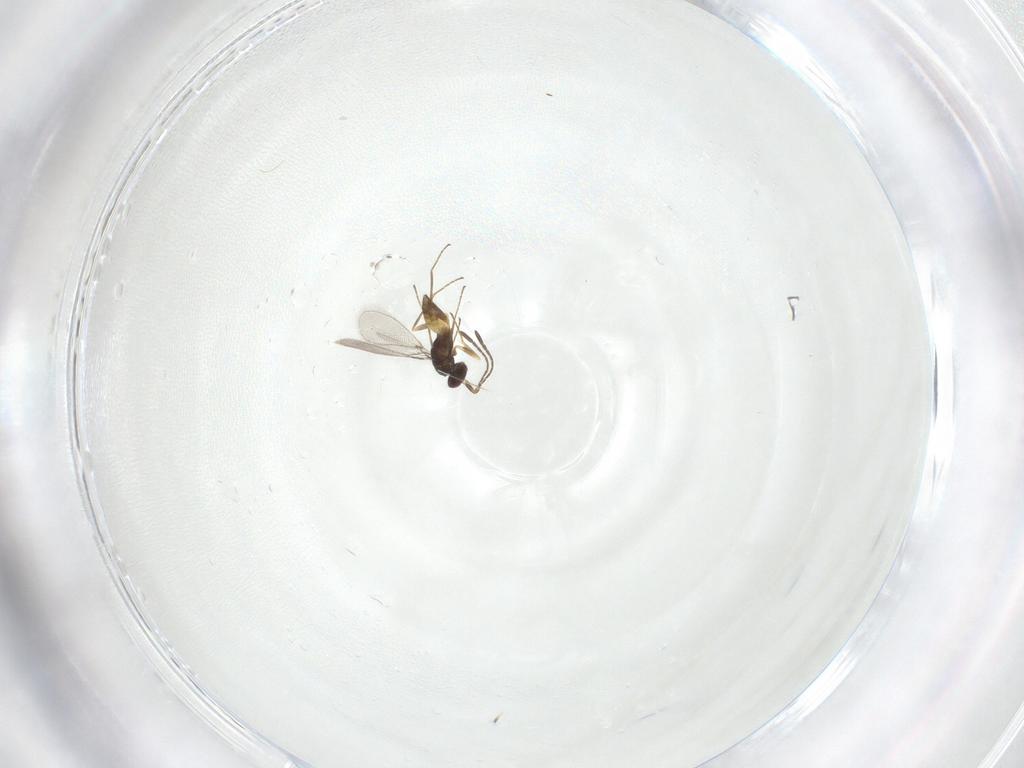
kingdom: Animalia
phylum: Arthropoda
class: Insecta
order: Hymenoptera
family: Mymaridae
